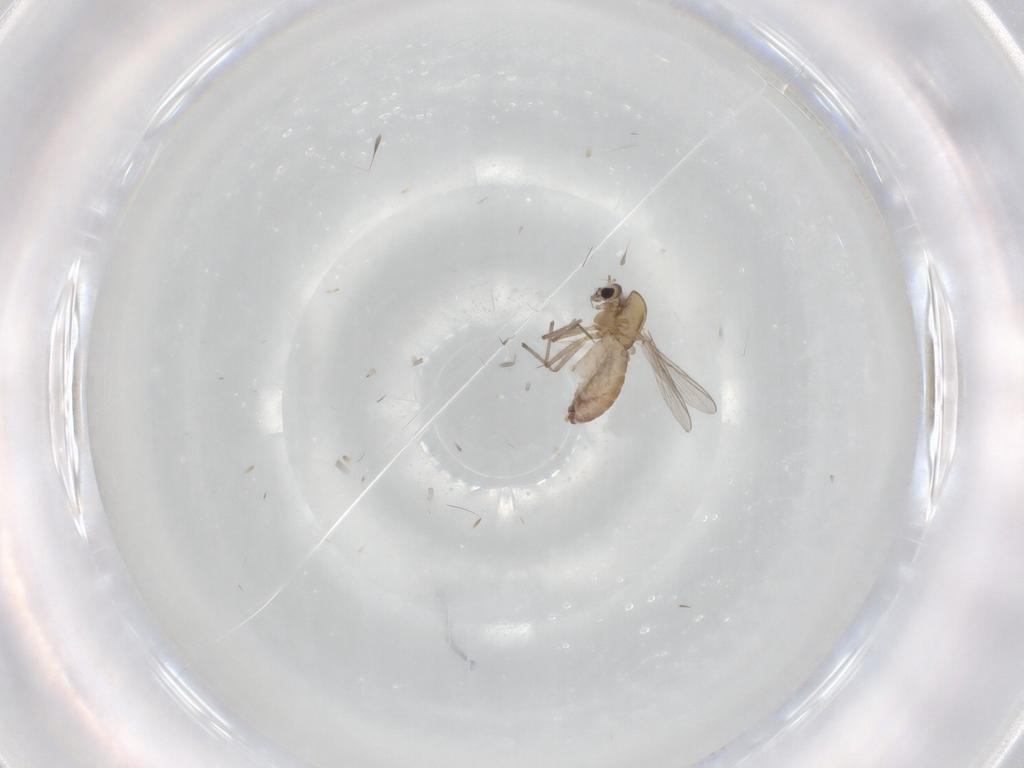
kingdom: Animalia
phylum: Arthropoda
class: Insecta
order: Diptera
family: Chironomidae
